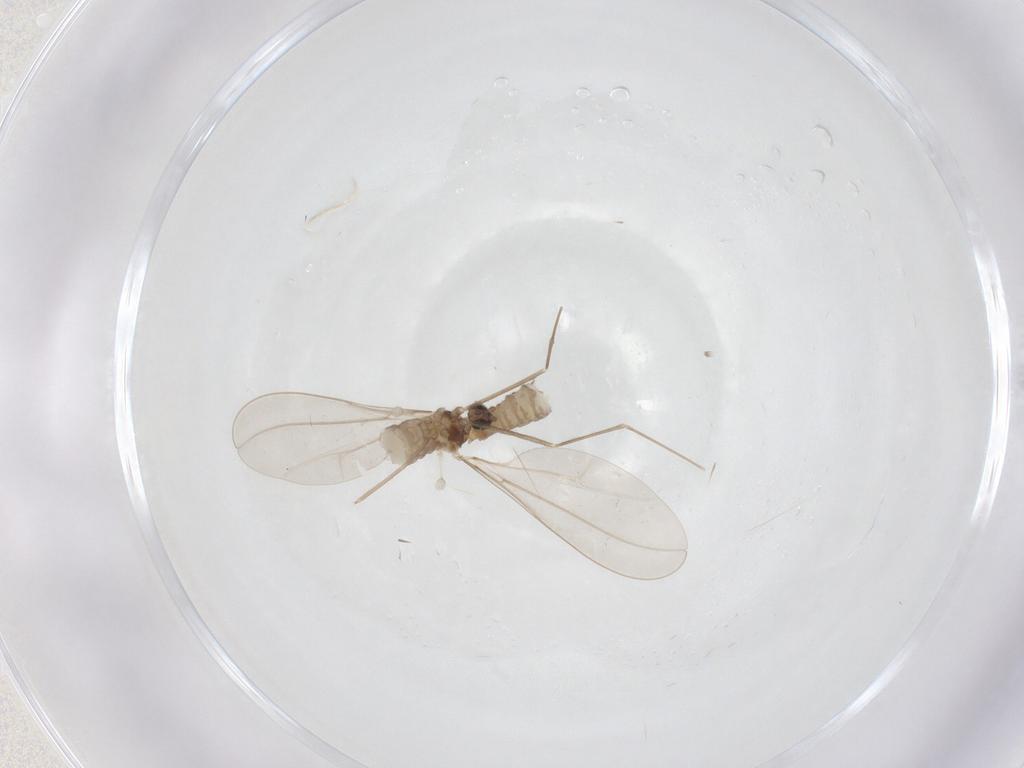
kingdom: Animalia
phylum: Arthropoda
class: Insecta
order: Diptera
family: Cecidomyiidae
